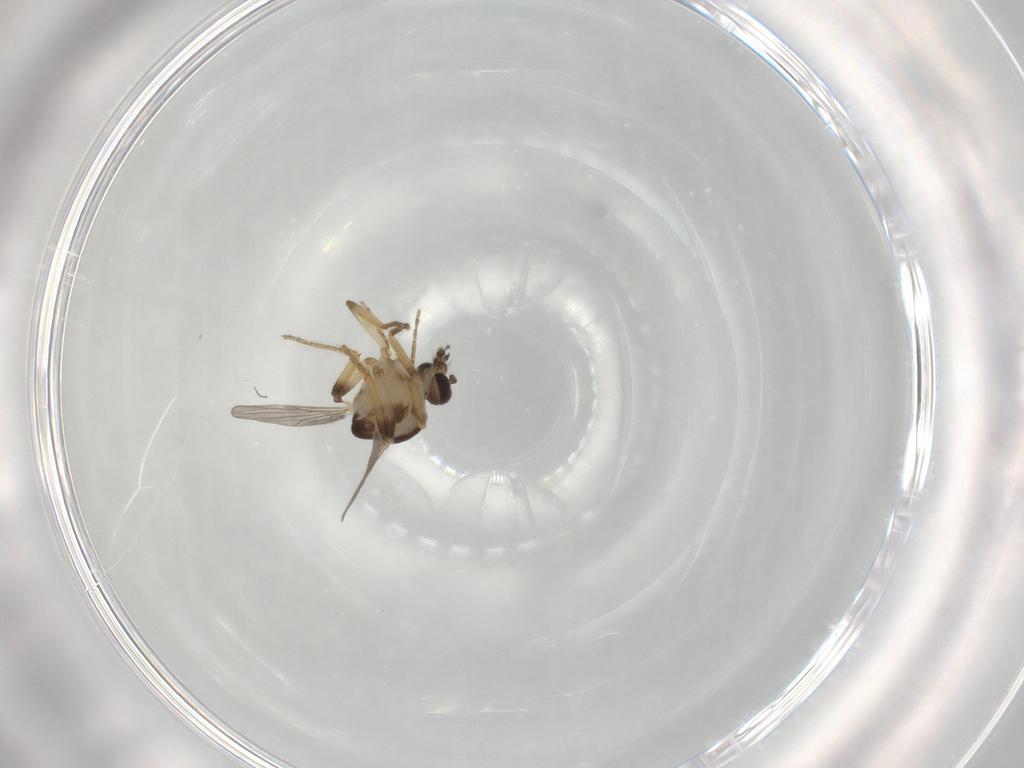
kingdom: Animalia
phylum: Arthropoda
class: Insecta
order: Diptera
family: Ceratopogonidae
